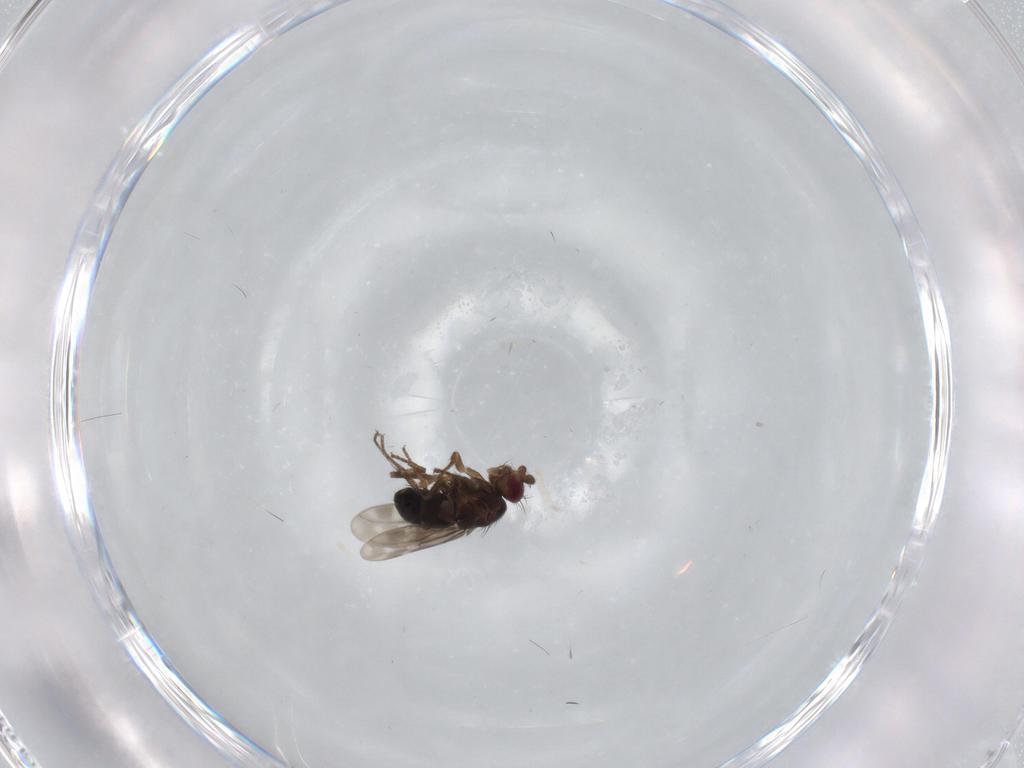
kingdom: Animalia
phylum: Arthropoda
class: Insecta
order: Diptera
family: Sphaeroceridae
